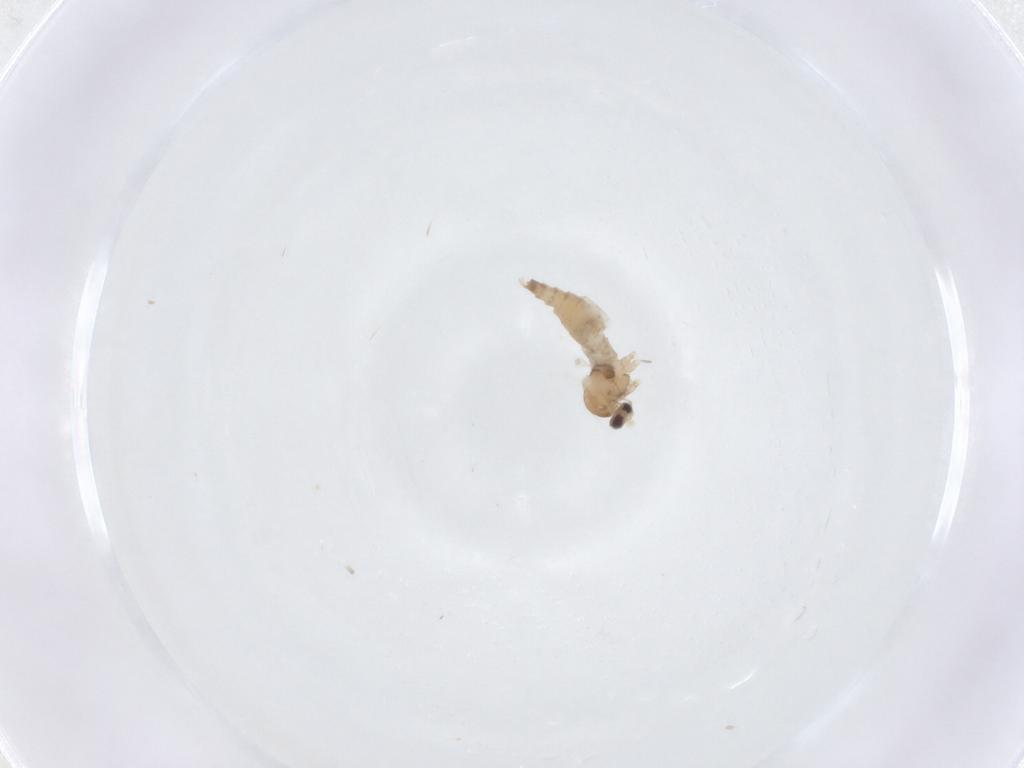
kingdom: Animalia
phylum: Arthropoda
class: Insecta
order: Diptera
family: Cecidomyiidae
